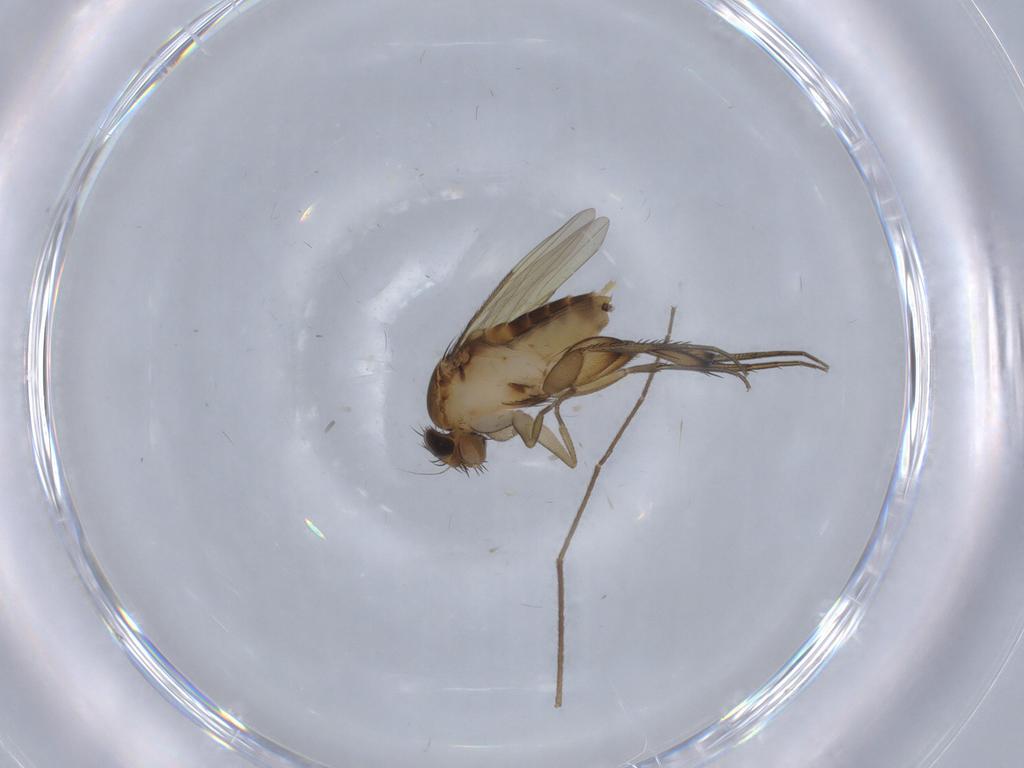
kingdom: Animalia
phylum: Arthropoda
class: Insecta
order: Diptera
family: Phoridae
